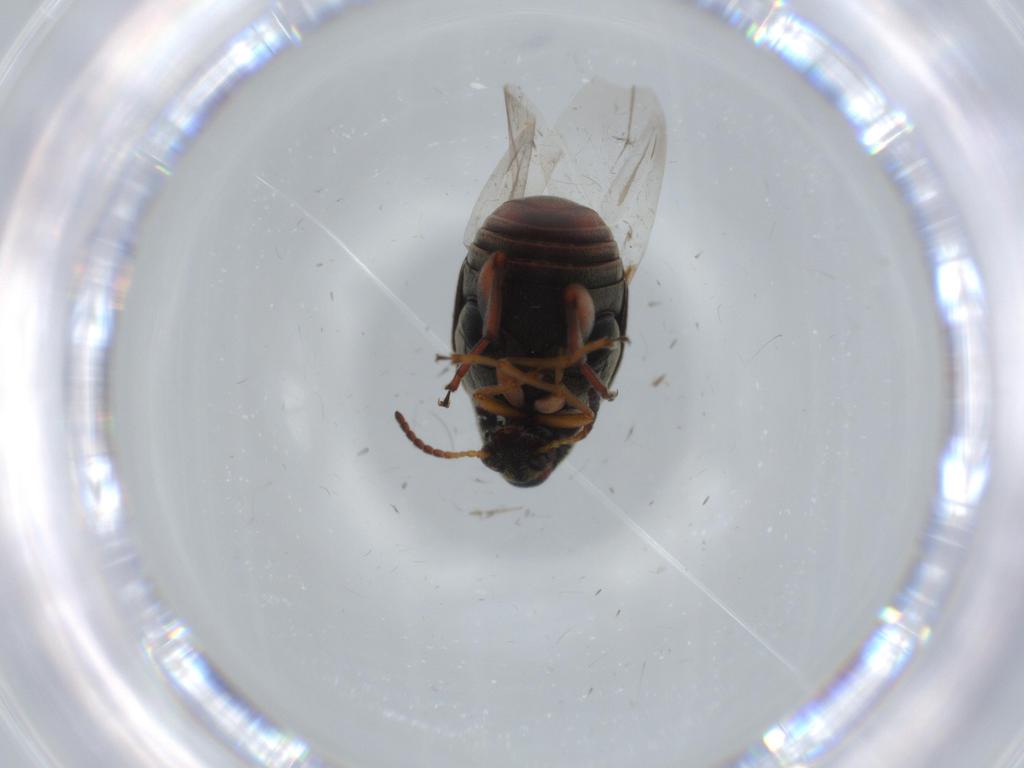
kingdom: Animalia
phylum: Arthropoda
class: Insecta
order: Coleoptera
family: Chrysomelidae
